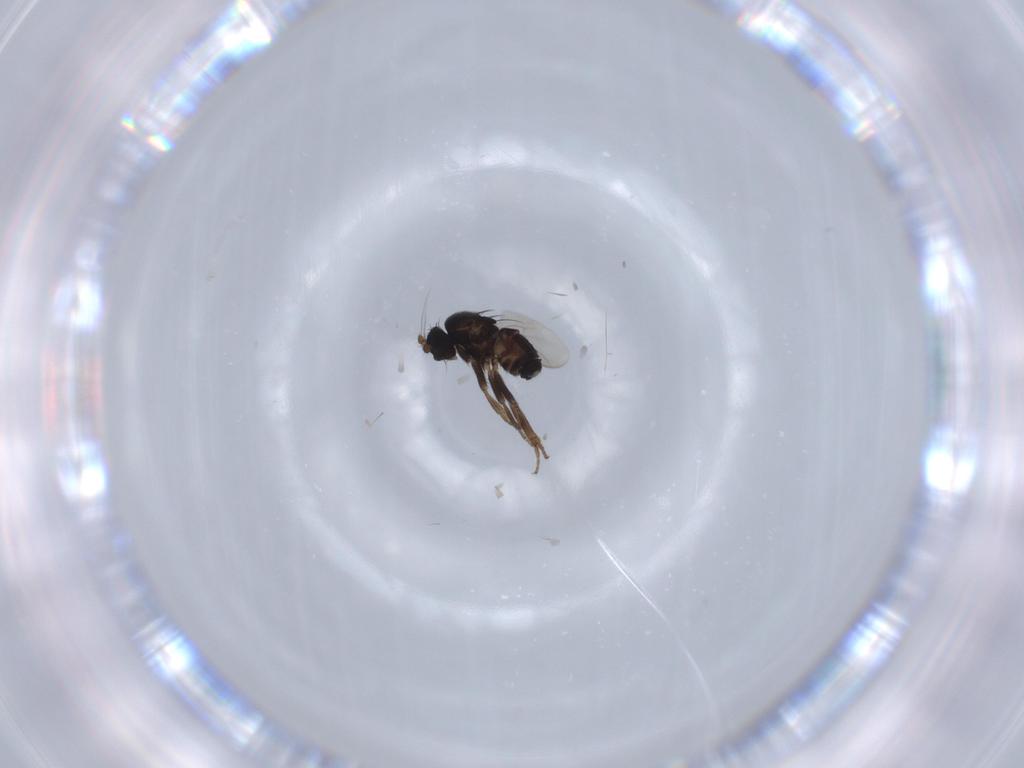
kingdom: Animalia
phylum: Arthropoda
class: Insecta
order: Diptera
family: Sphaeroceridae
